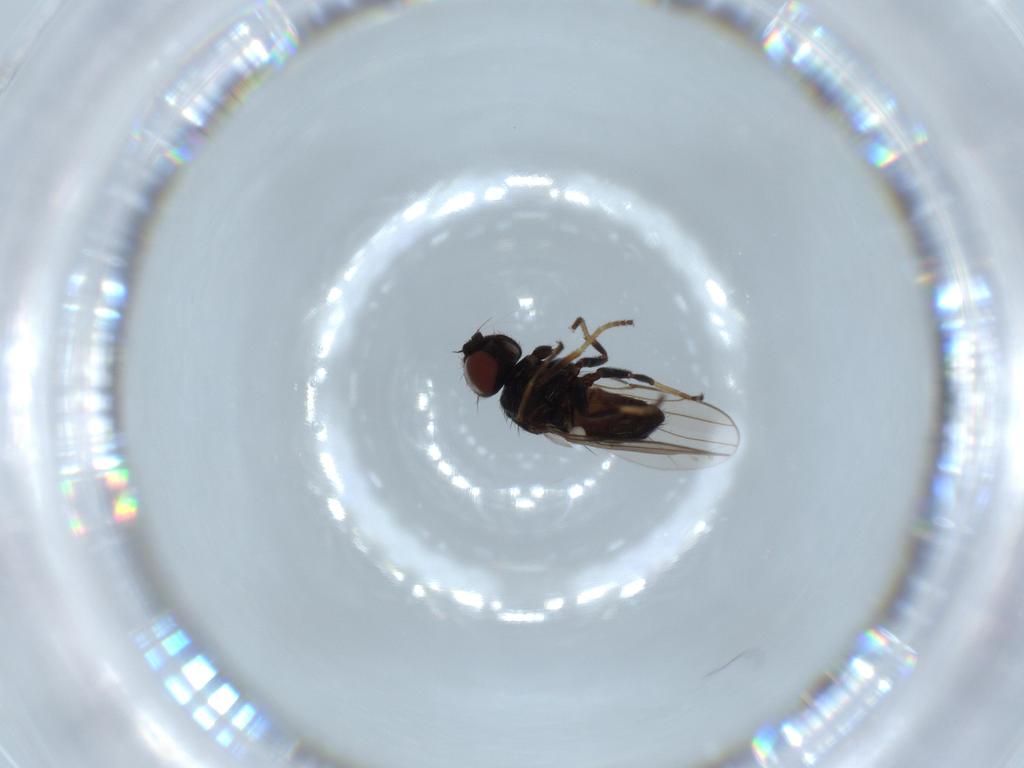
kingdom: Animalia
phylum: Arthropoda
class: Insecta
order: Diptera
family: Chloropidae
